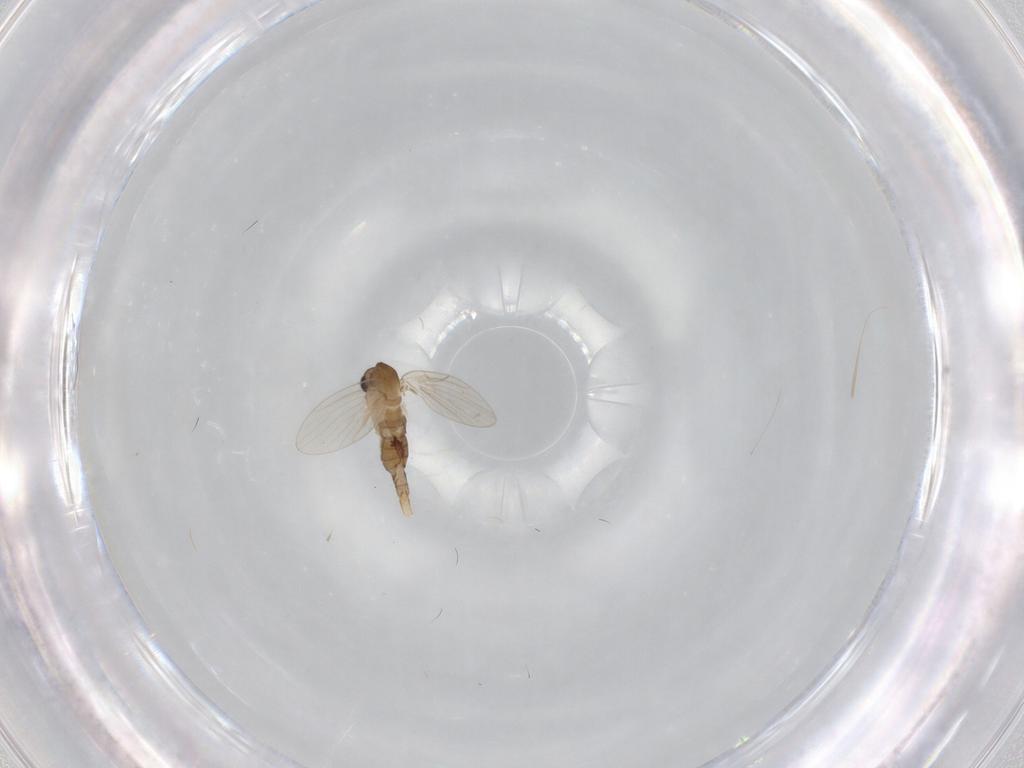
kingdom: Animalia
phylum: Arthropoda
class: Insecta
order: Diptera
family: Psychodidae
